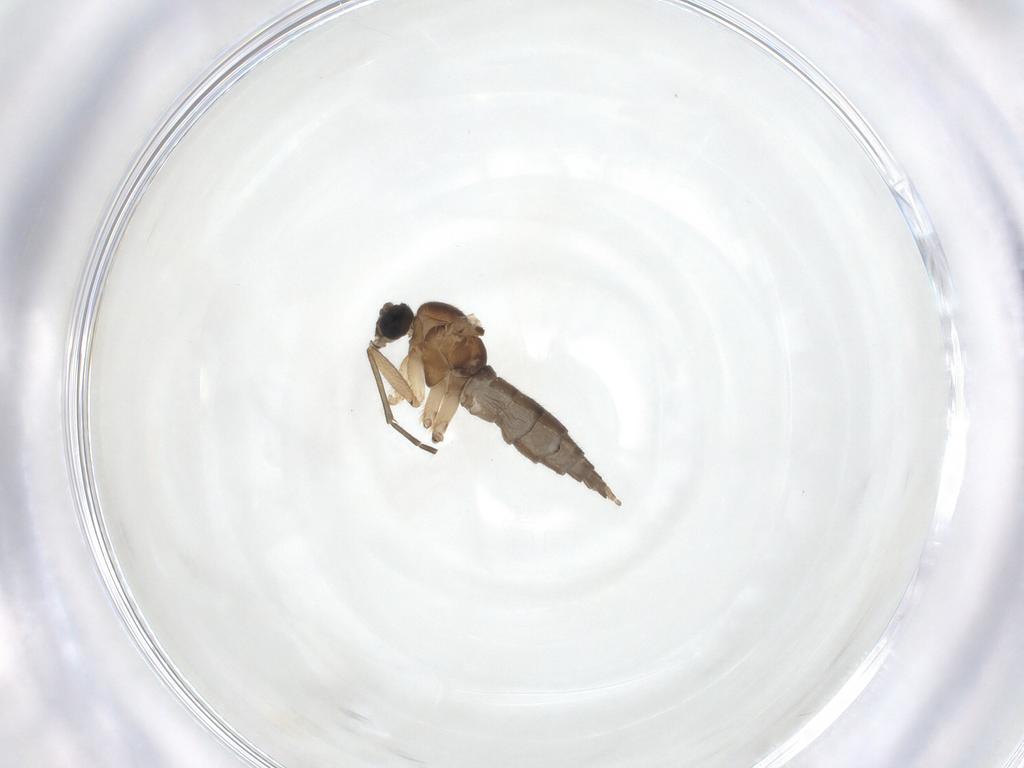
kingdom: Animalia
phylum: Arthropoda
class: Insecta
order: Diptera
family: Sciaridae
